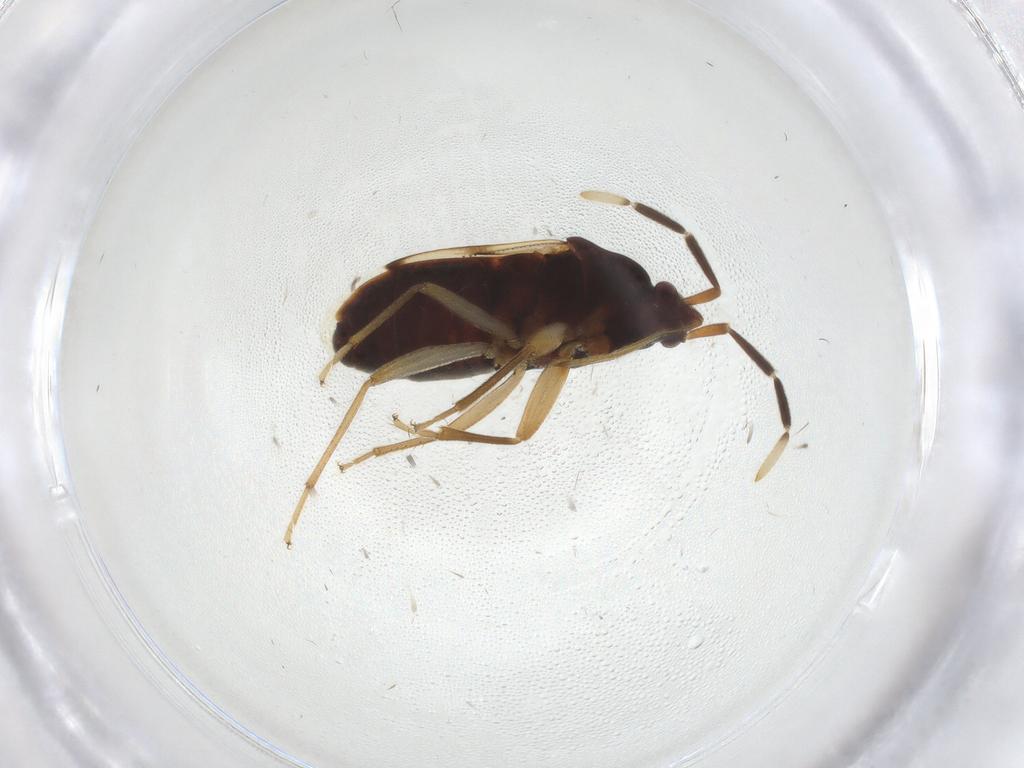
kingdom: Animalia
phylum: Arthropoda
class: Insecta
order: Hemiptera
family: Rhyparochromidae
